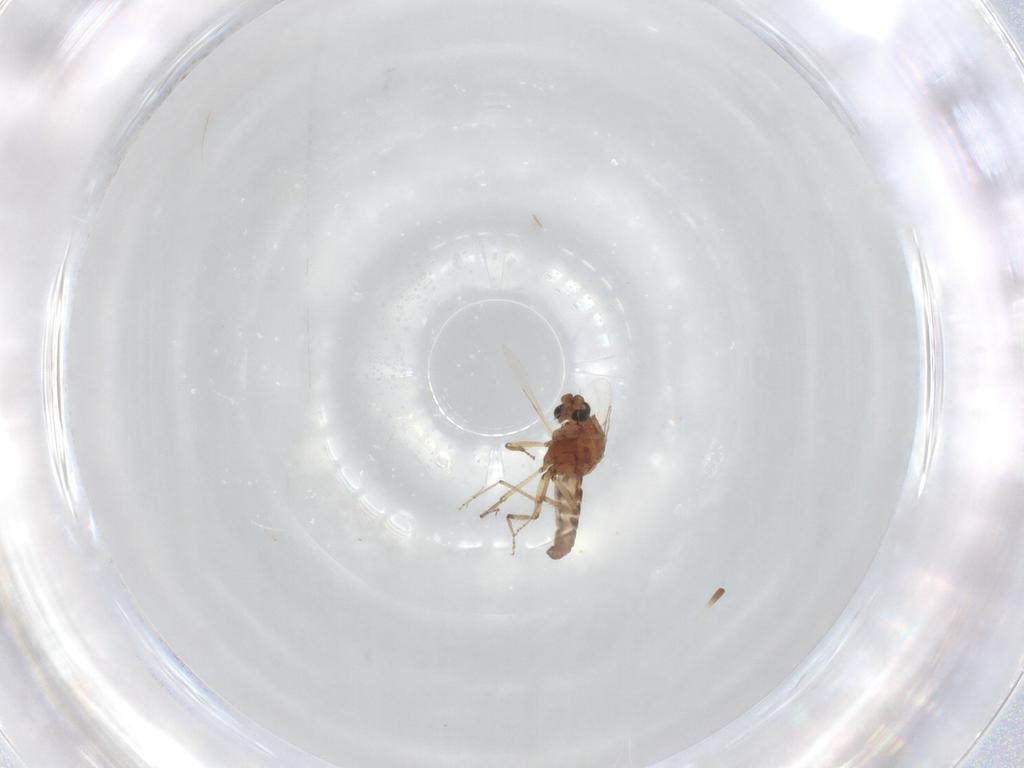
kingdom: Animalia
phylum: Arthropoda
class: Insecta
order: Diptera
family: Ceratopogonidae
